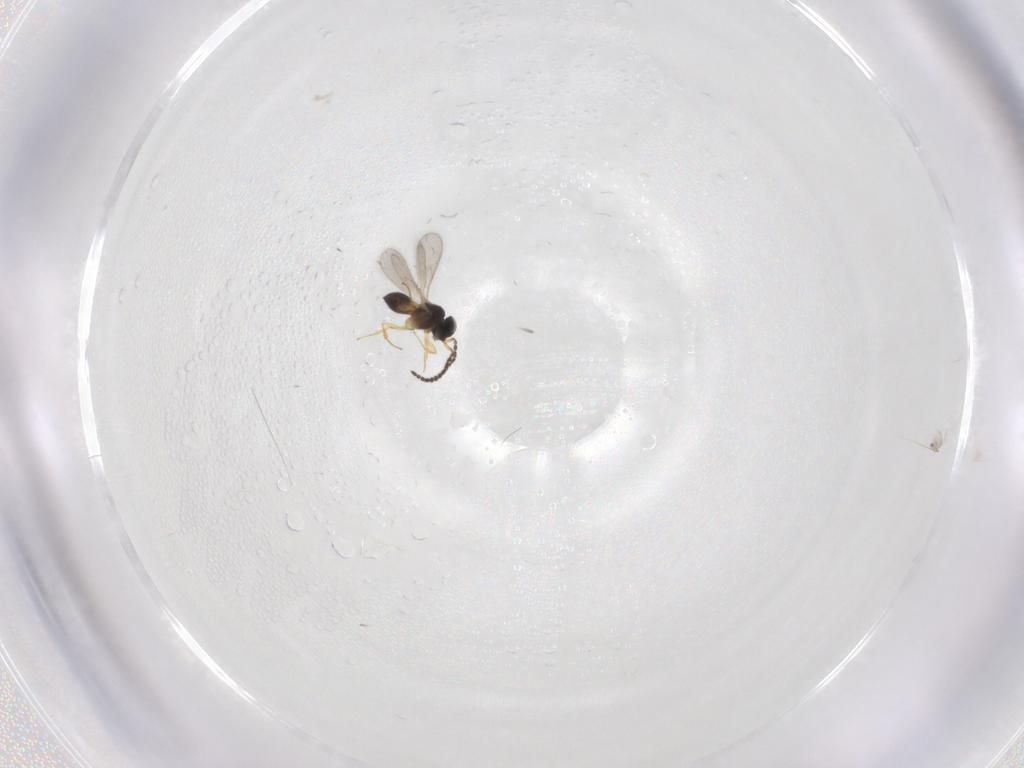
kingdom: Animalia
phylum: Arthropoda
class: Insecta
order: Hymenoptera
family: Scelionidae
